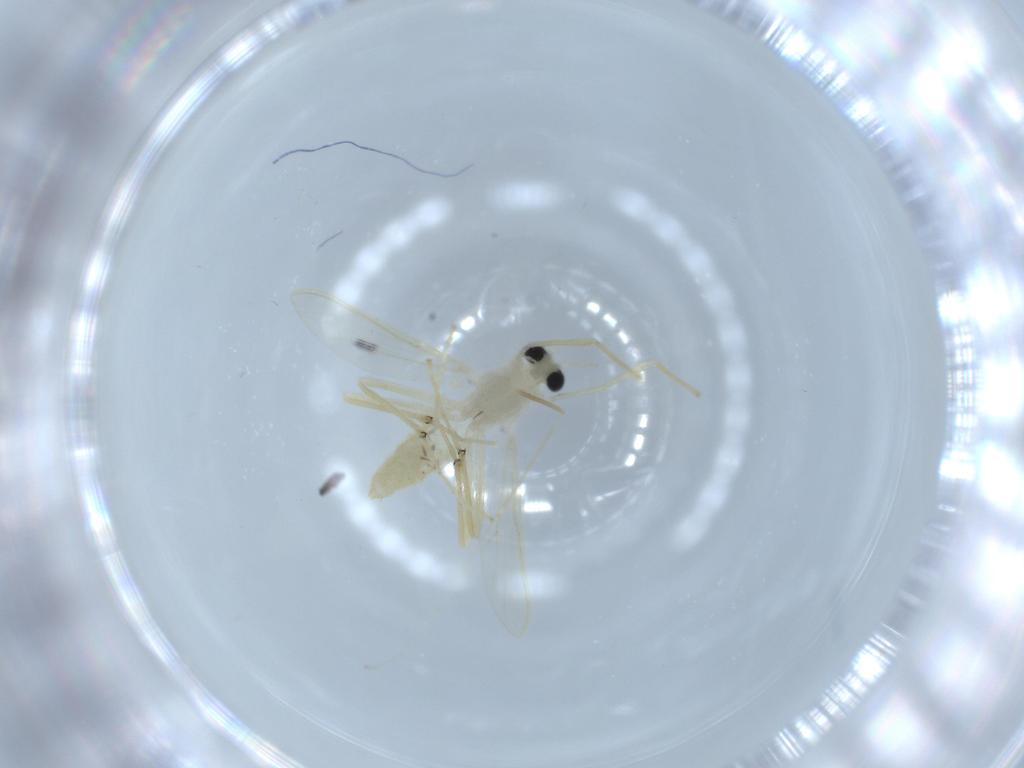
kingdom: Animalia
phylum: Arthropoda
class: Insecta
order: Diptera
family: Chironomidae
